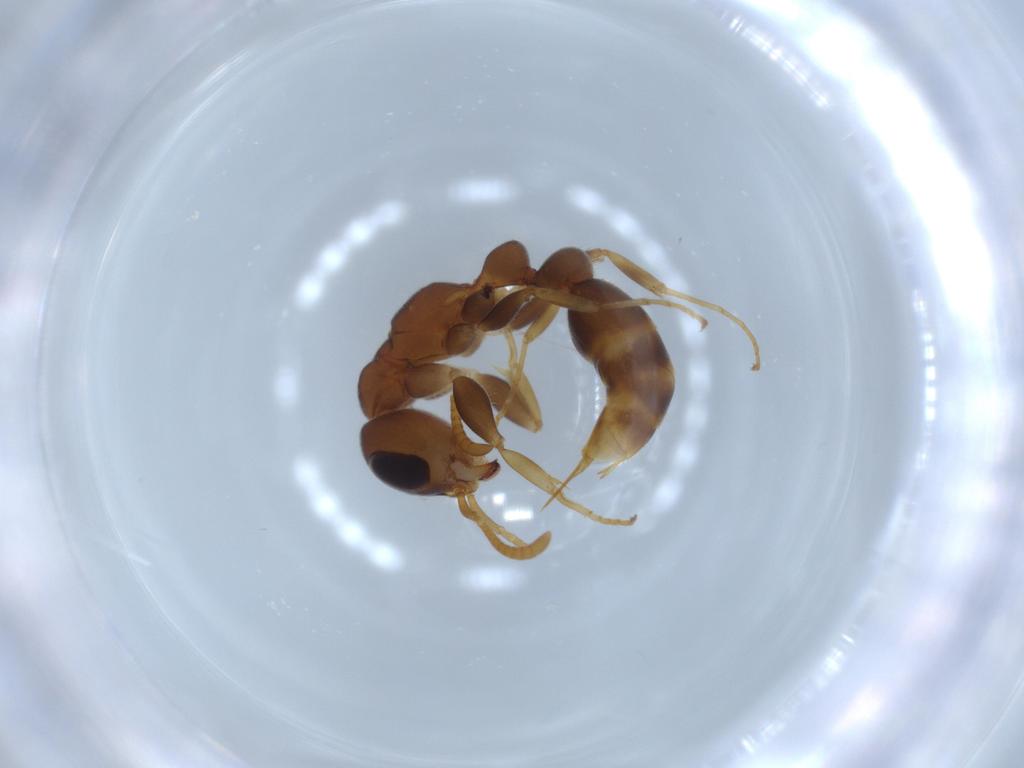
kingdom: Animalia
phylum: Arthropoda
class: Insecta
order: Hymenoptera
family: Formicidae
